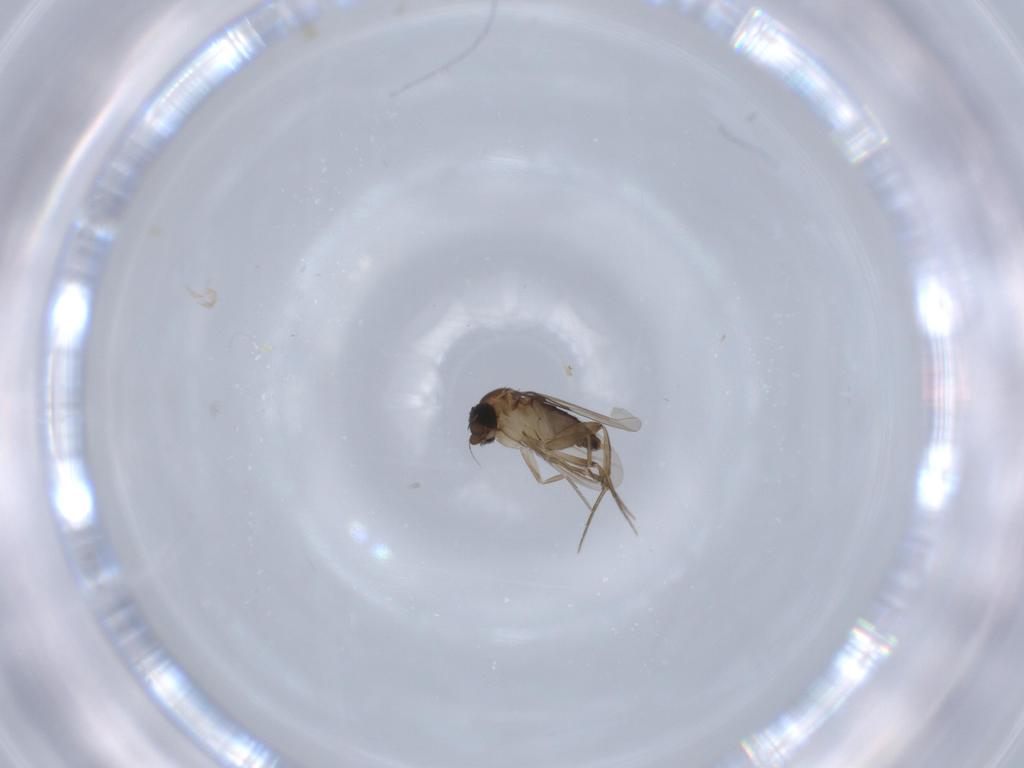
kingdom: Animalia
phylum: Arthropoda
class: Insecta
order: Diptera
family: Phoridae
